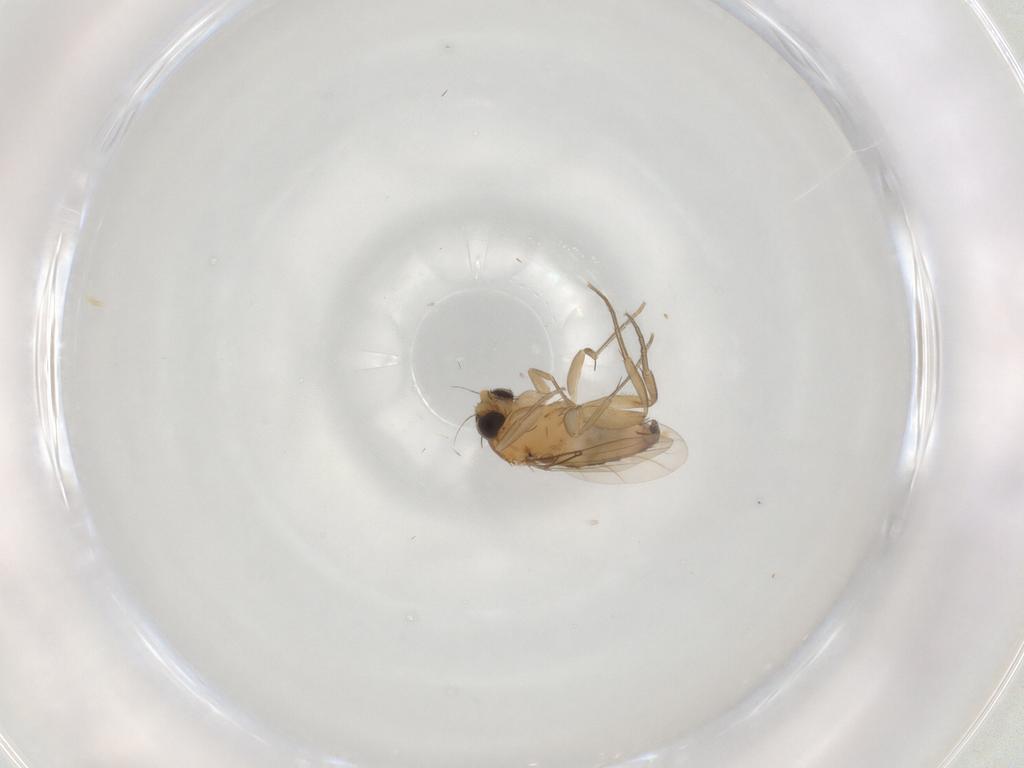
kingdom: Animalia
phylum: Arthropoda
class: Insecta
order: Diptera
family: Phoridae
